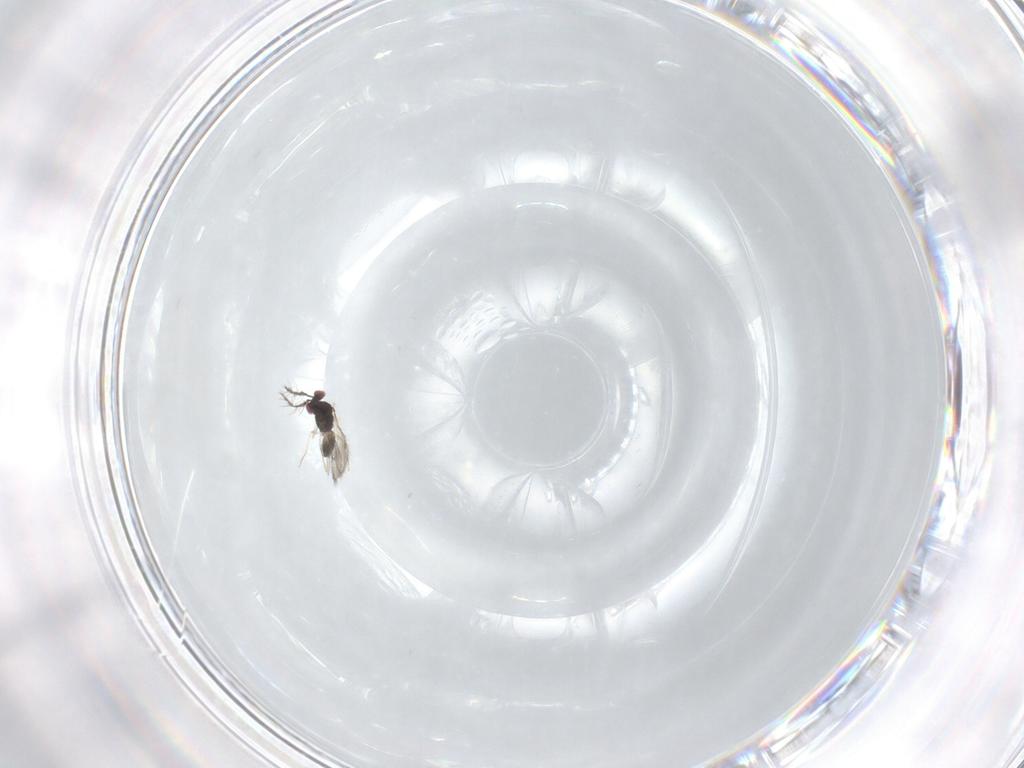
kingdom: Animalia
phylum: Arthropoda
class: Insecta
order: Hymenoptera
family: Eulophidae
